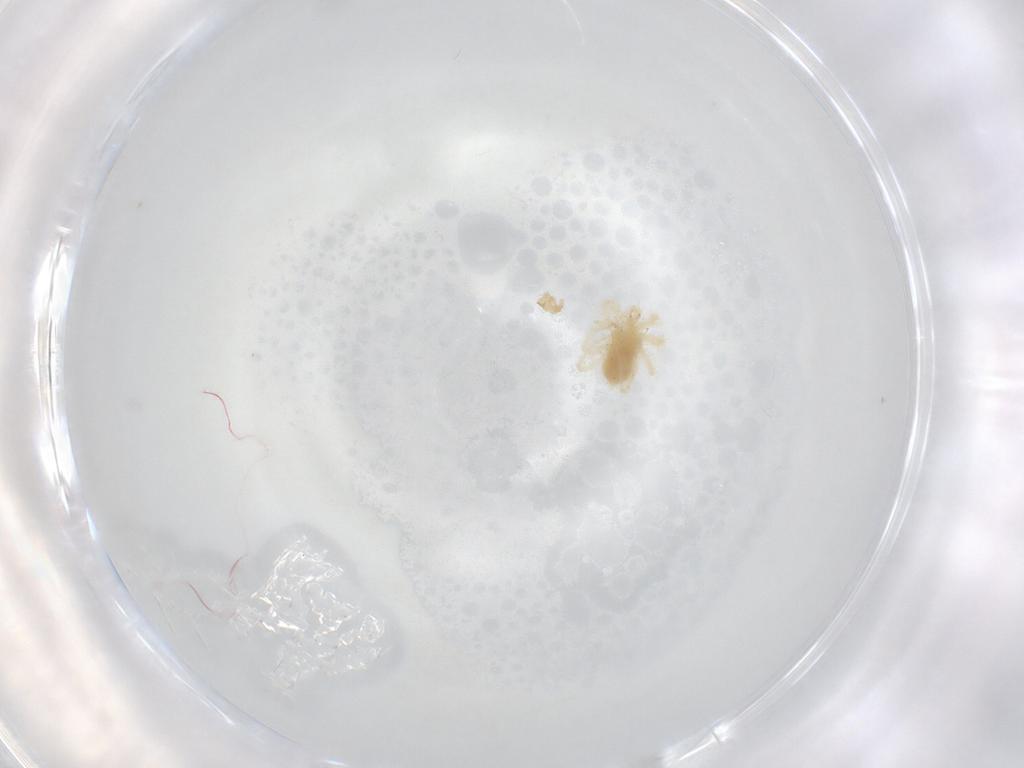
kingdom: Animalia
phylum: Arthropoda
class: Arachnida
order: Trombidiformes
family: Anystidae
